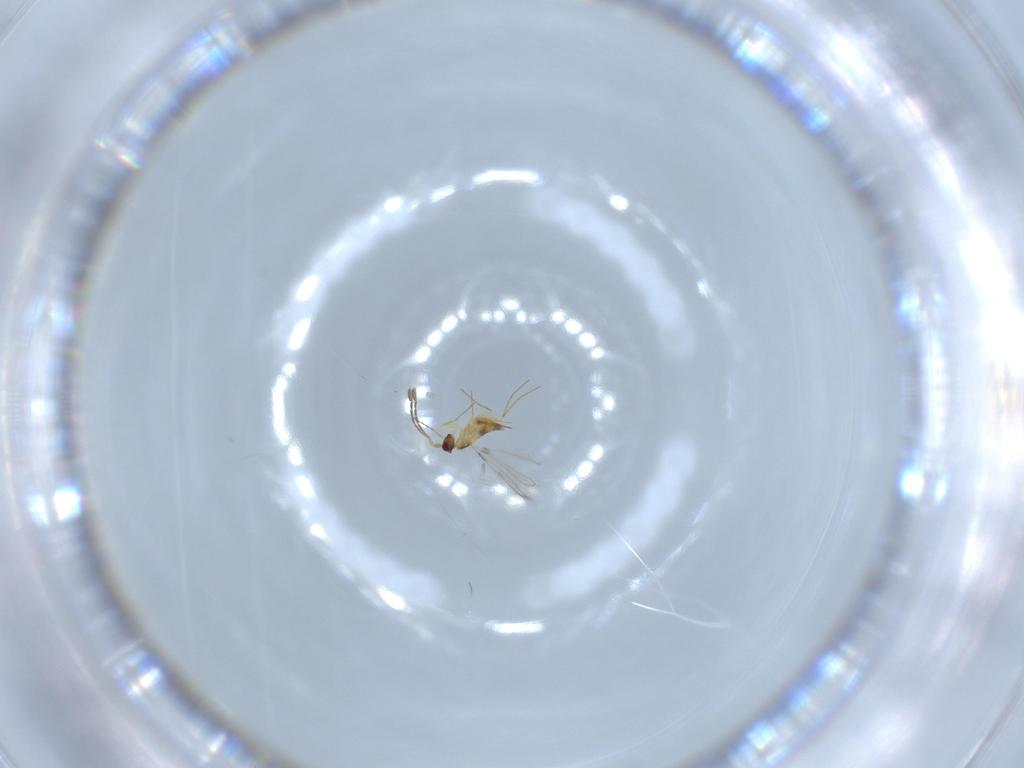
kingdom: Animalia
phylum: Arthropoda
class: Insecta
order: Hymenoptera
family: Mymaridae
